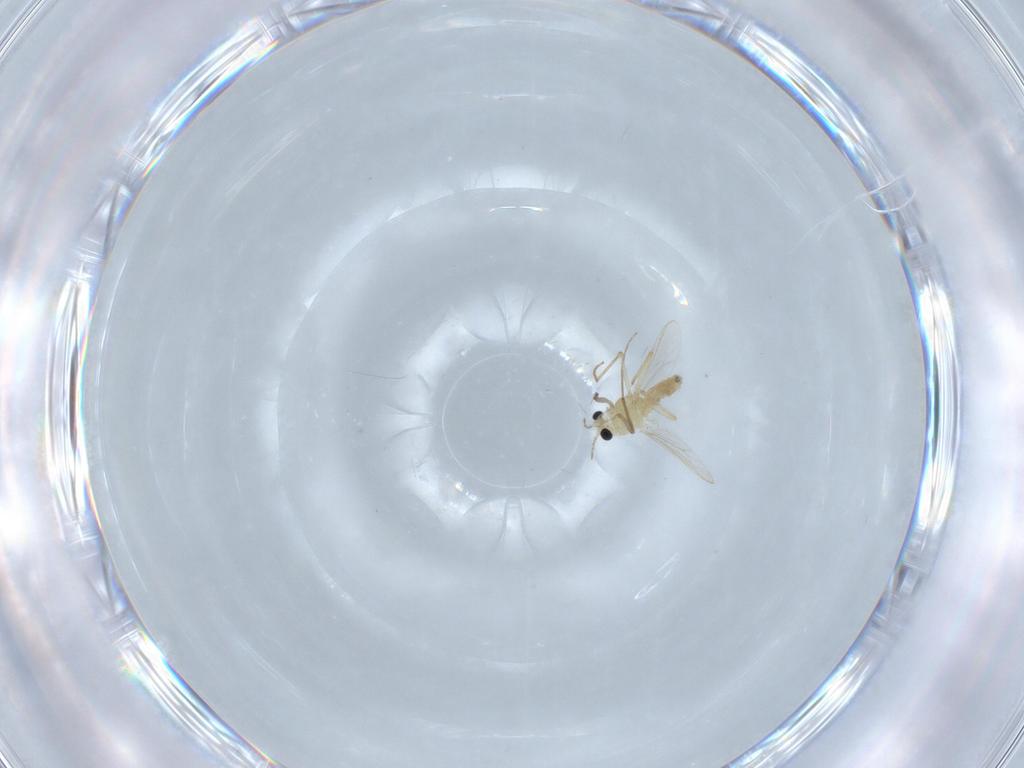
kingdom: Animalia
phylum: Arthropoda
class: Insecta
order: Diptera
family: Chironomidae
